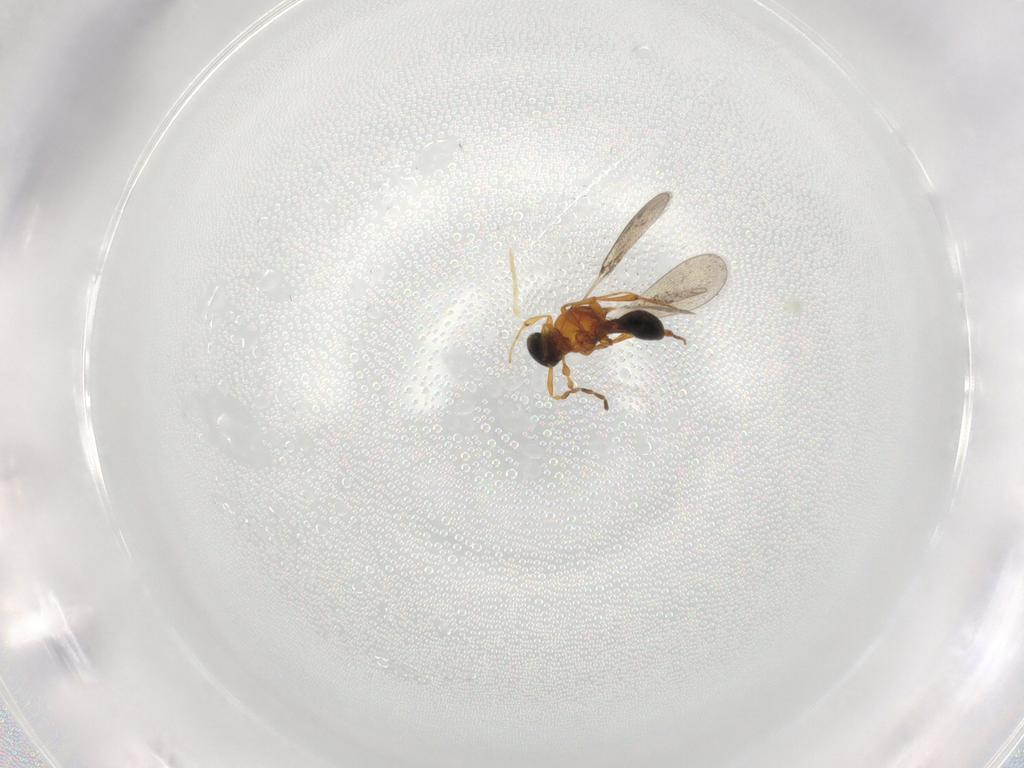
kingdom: Animalia
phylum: Arthropoda
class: Insecta
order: Hymenoptera
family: Platygastridae
